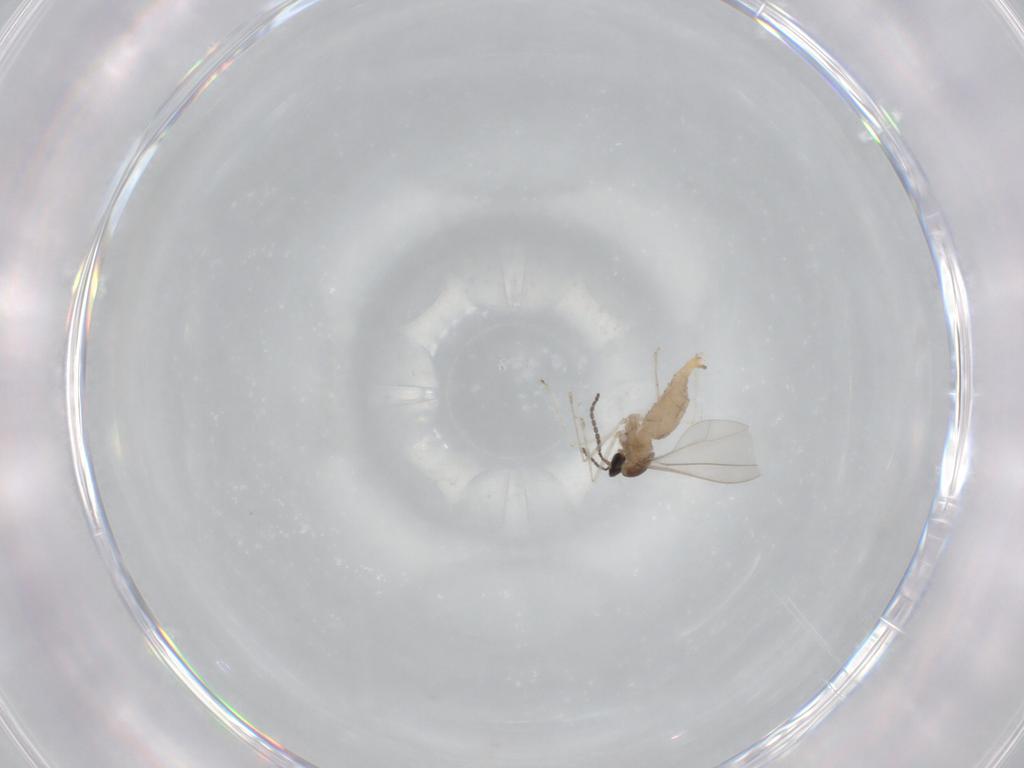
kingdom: Animalia
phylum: Arthropoda
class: Insecta
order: Diptera
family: Cecidomyiidae
